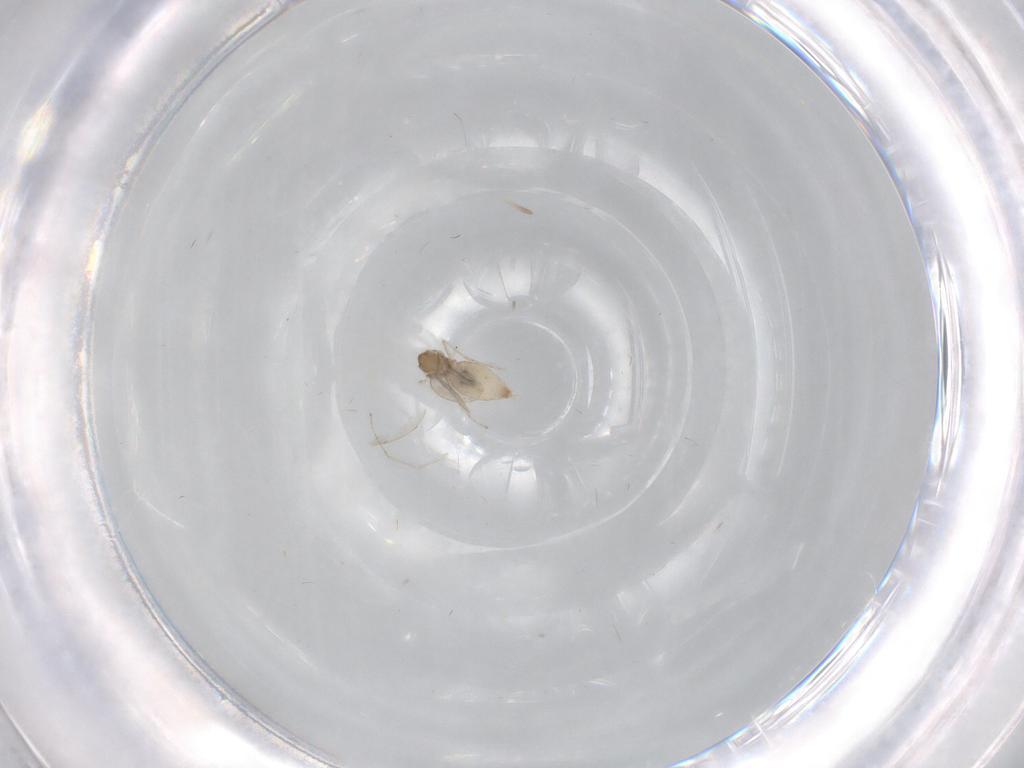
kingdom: Animalia
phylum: Arthropoda
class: Insecta
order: Diptera
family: Cecidomyiidae
